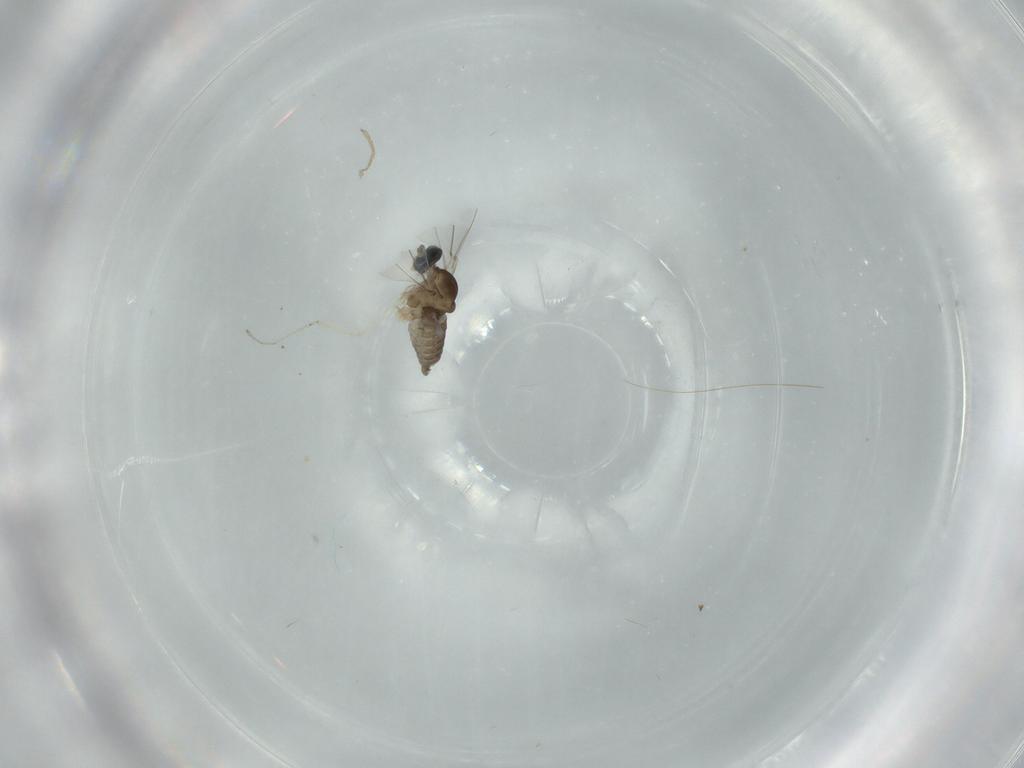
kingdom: Animalia
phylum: Arthropoda
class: Insecta
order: Diptera
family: Cecidomyiidae
